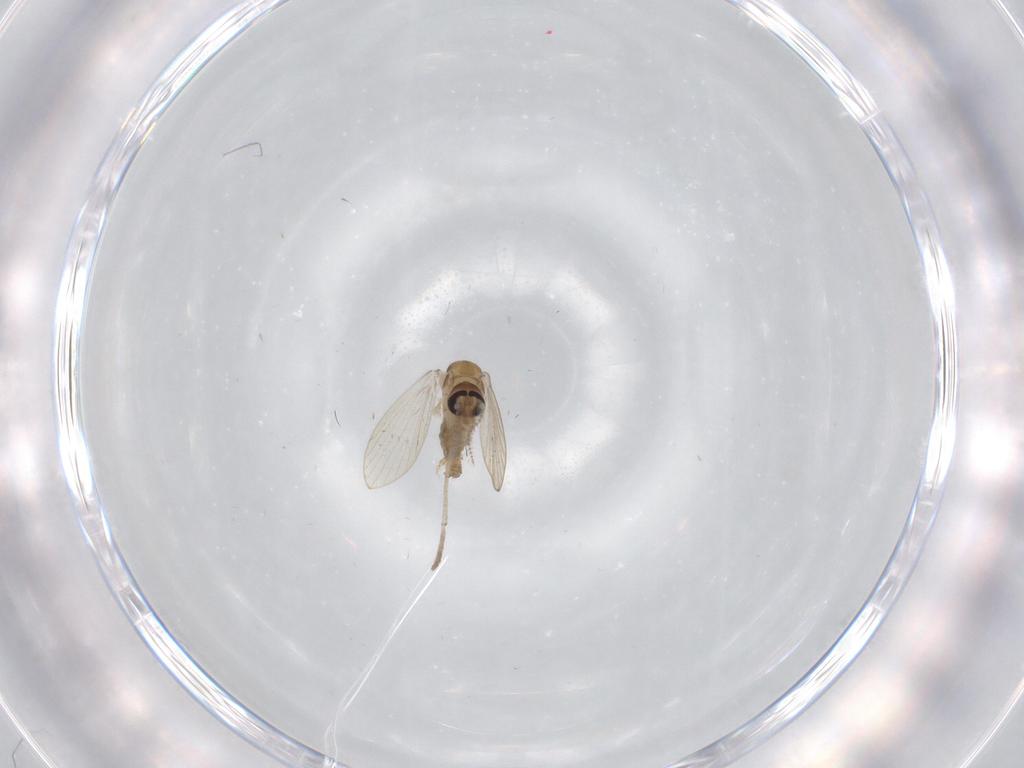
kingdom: Animalia
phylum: Arthropoda
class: Insecta
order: Diptera
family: Psychodidae
